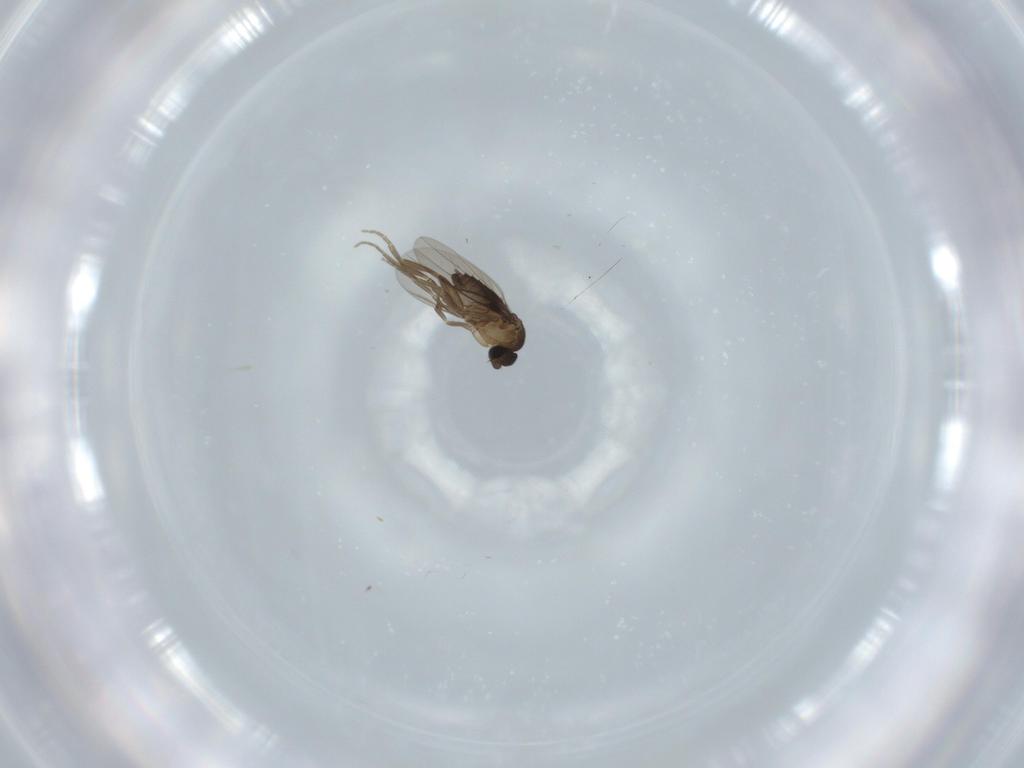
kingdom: Animalia
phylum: Arthropoda
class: Insecta
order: Diptera
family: Phoridae
